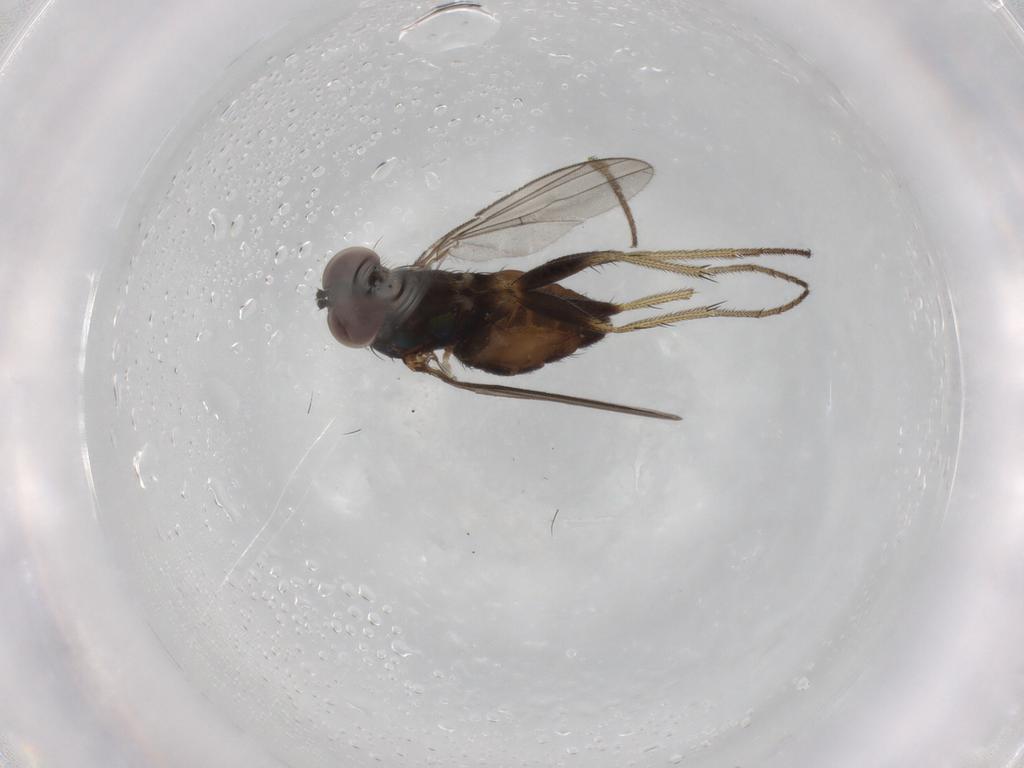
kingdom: Animalia
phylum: Arthropoda
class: Insecta
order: Diptera
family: Dolichopodidae
